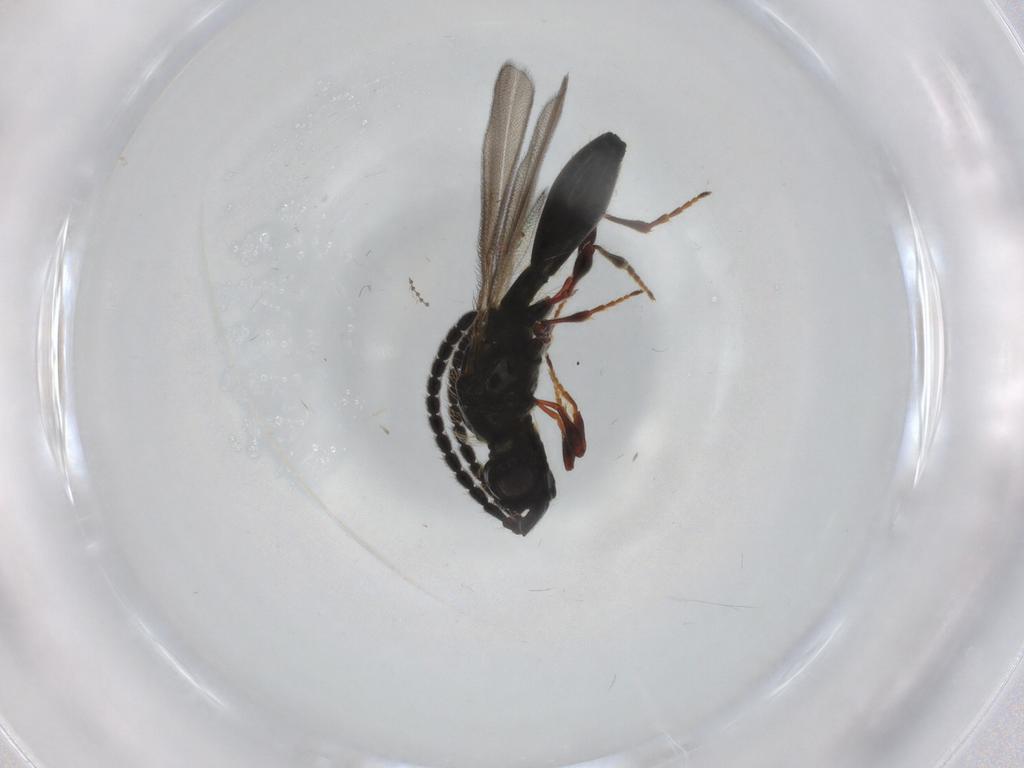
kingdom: Animalia
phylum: Arthropoda
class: Insecta
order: Hymenoptera
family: Diapriidae
